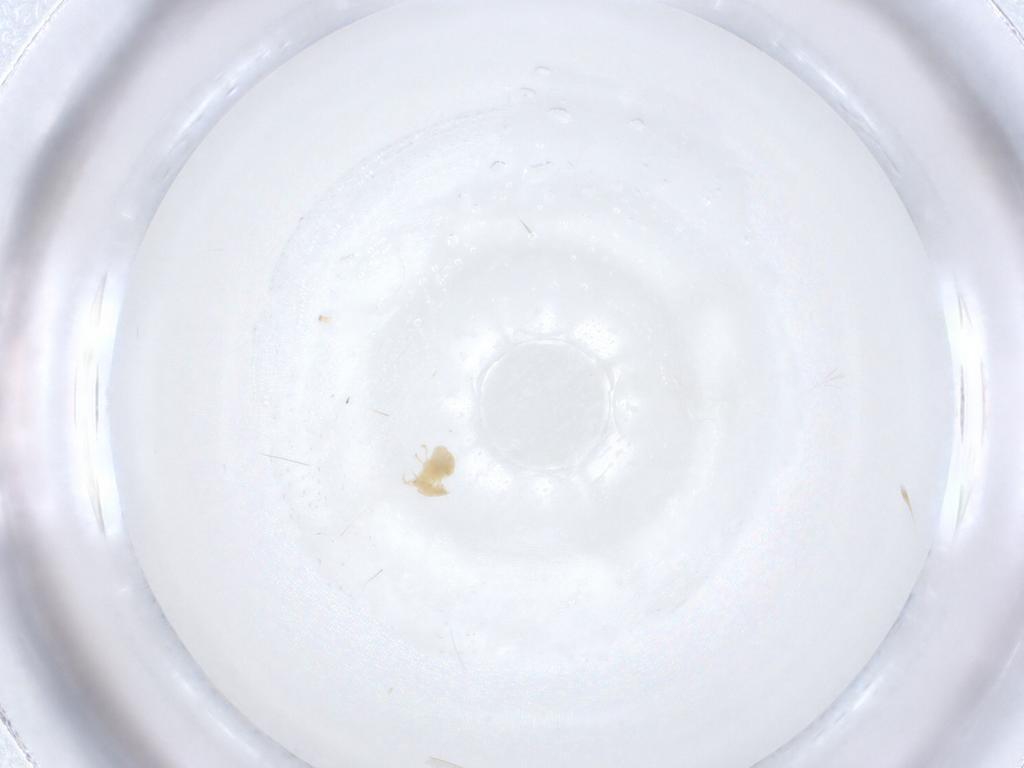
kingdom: Animalia
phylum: Arthropoda
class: Arachnida
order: Trombidiformes
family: Tetranychidae
